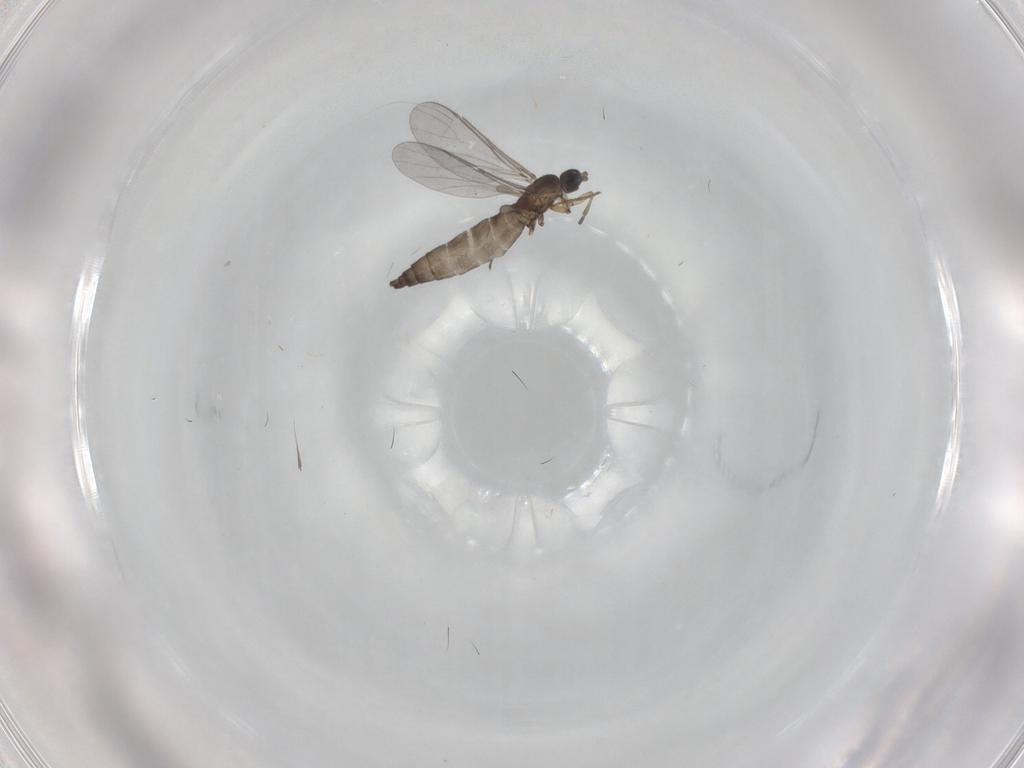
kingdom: Animalia
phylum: Arthropoda
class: Insecta
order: Diptera
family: Sciaridae
